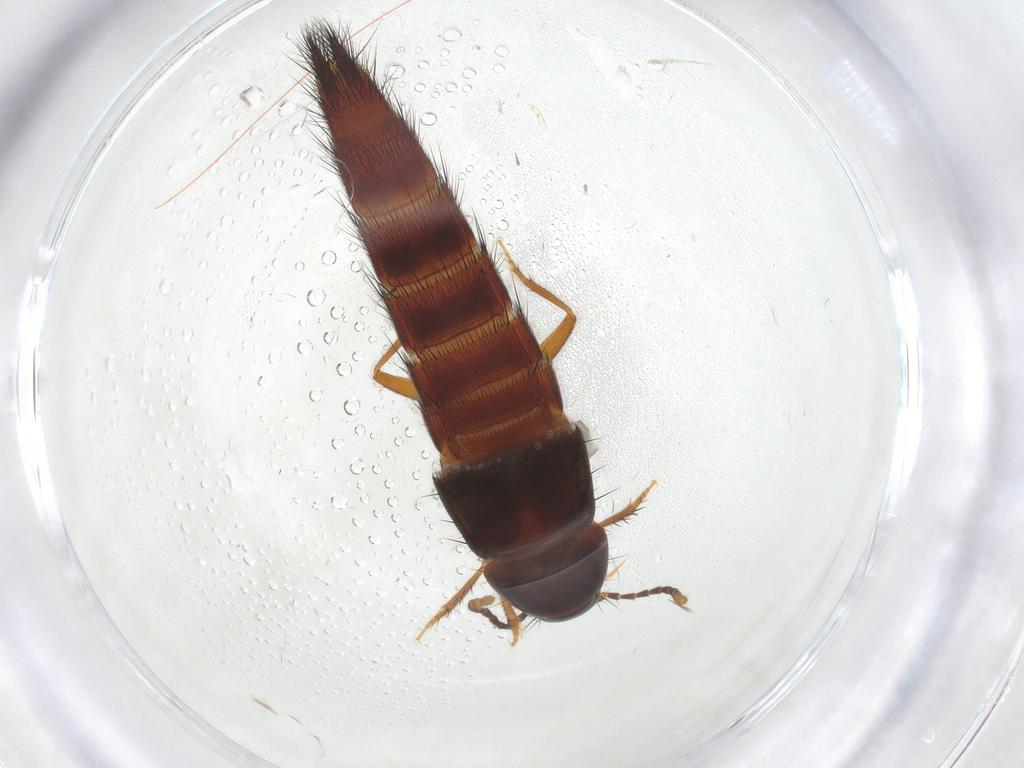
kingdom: Animalia
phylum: Arthropoda
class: Insecta
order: Coleoptera
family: Staphylinidae
